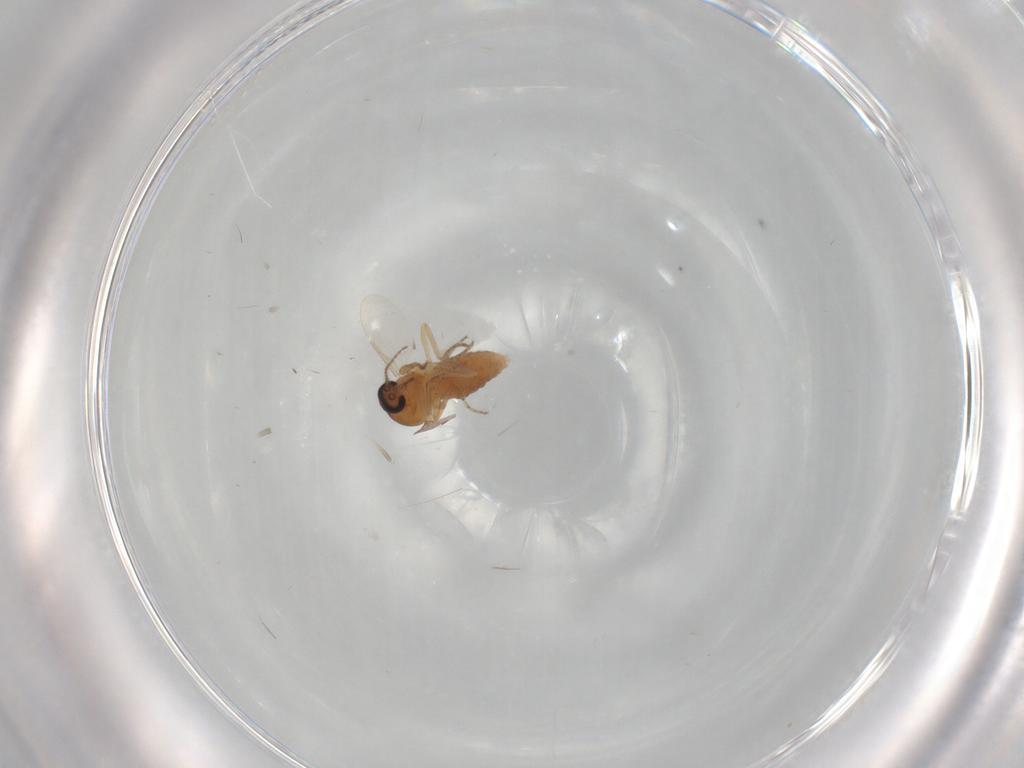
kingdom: Animalia
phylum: Arthropoda
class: Insecta
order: Diptera
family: Ceratopogonidae
